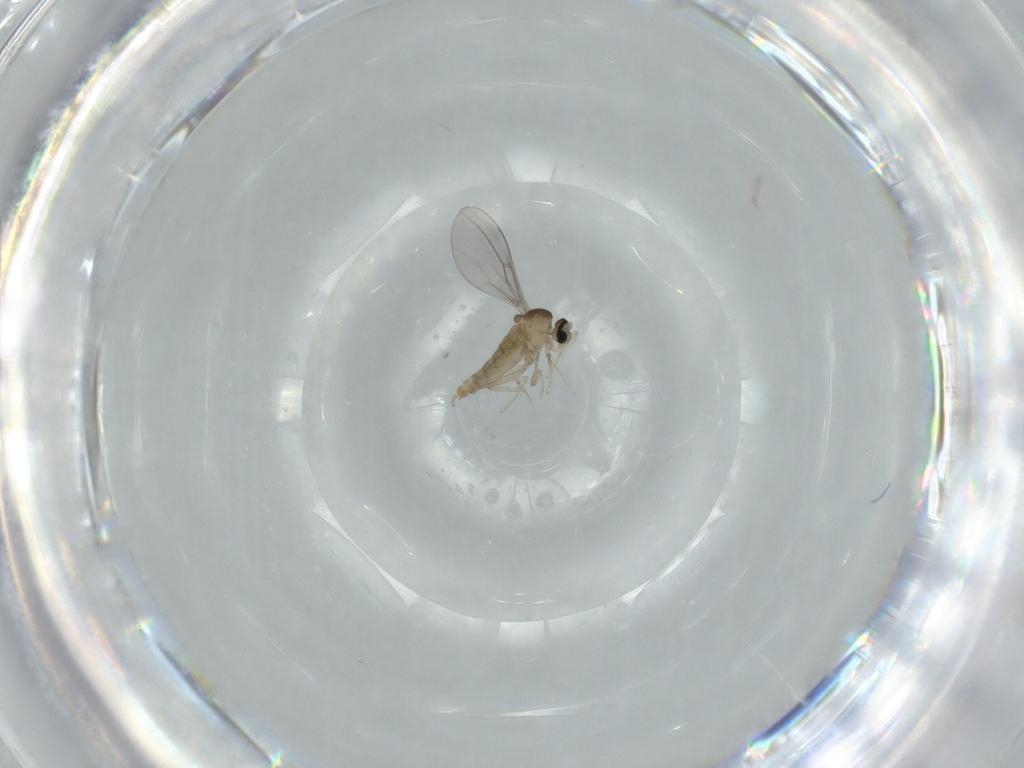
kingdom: Animalia
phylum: Arthropoda
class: Insecta
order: Diptera
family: Cecidomyiidae
